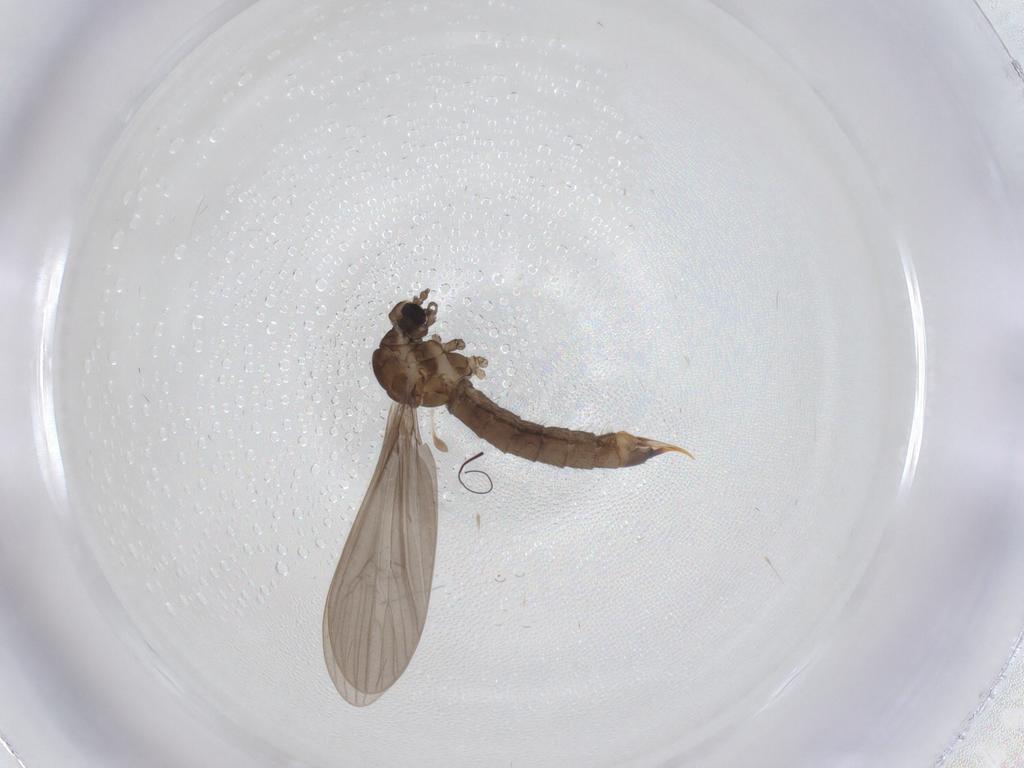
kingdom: Animalia
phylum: Arthropoda
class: Insecta
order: Diptera
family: Limoniidae
